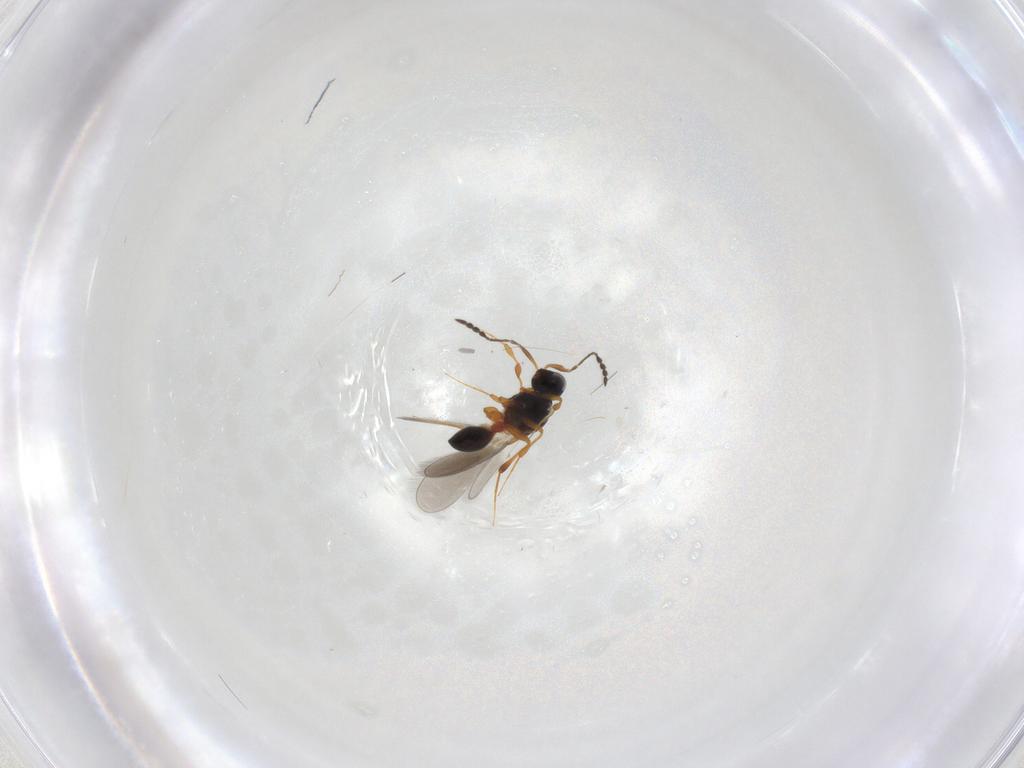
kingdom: Animalia
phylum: Arthropoda
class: Insecta
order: Hymenoptera
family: Platygastridae
